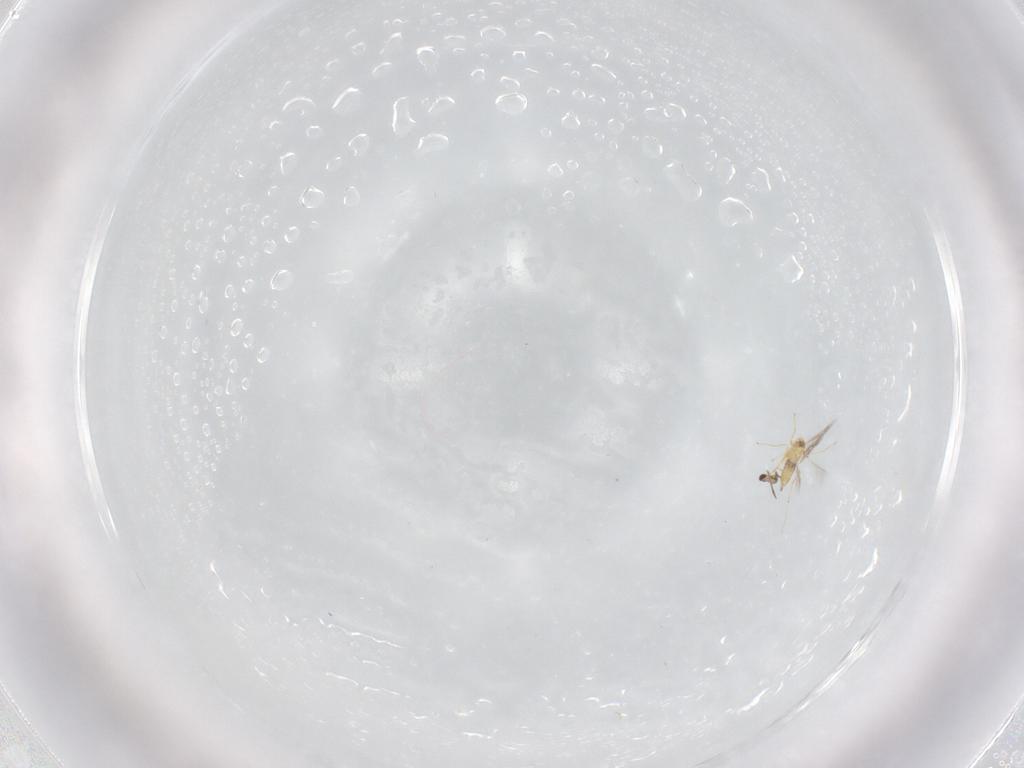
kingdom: Animalia
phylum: Arthropoda
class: Insecta
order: Hymenoptera
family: Mymaridae
